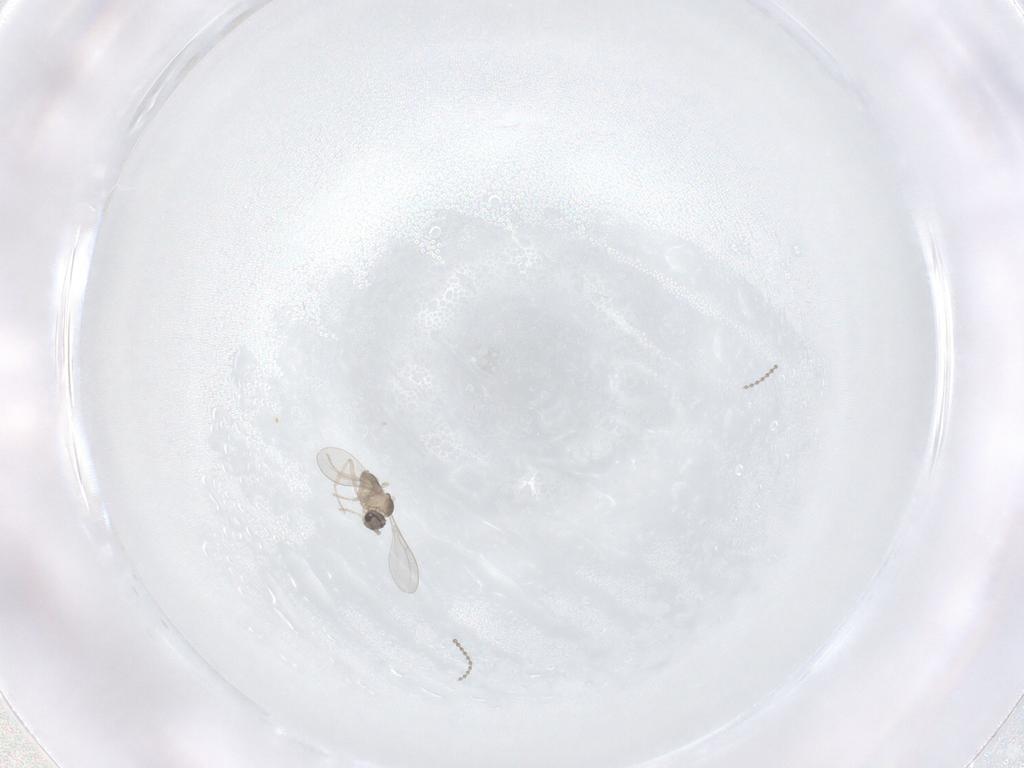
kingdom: Animalia
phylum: Arthropoda
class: Insecta
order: Diptera
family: Cecidomyiidae
